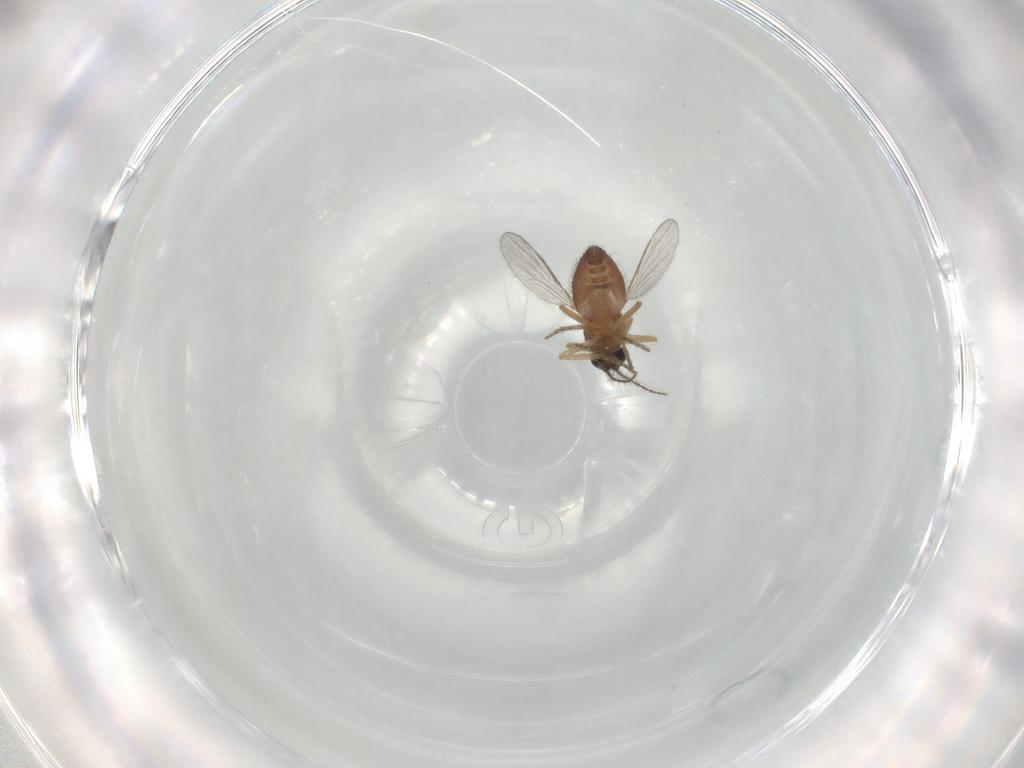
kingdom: Animalia
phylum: Arthropoda
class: Insecta
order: Diptera
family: Ceratopogonidae
